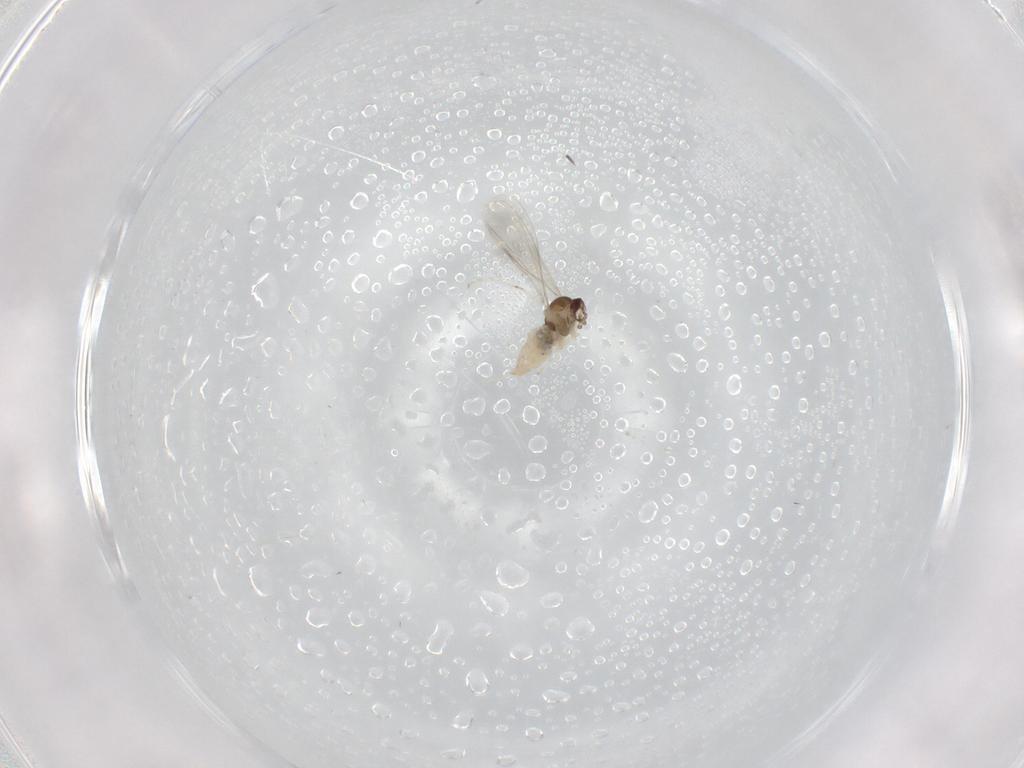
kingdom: Animalia
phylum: Arthropoda
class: Insecta
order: Diptera
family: Cecidomyiidae
